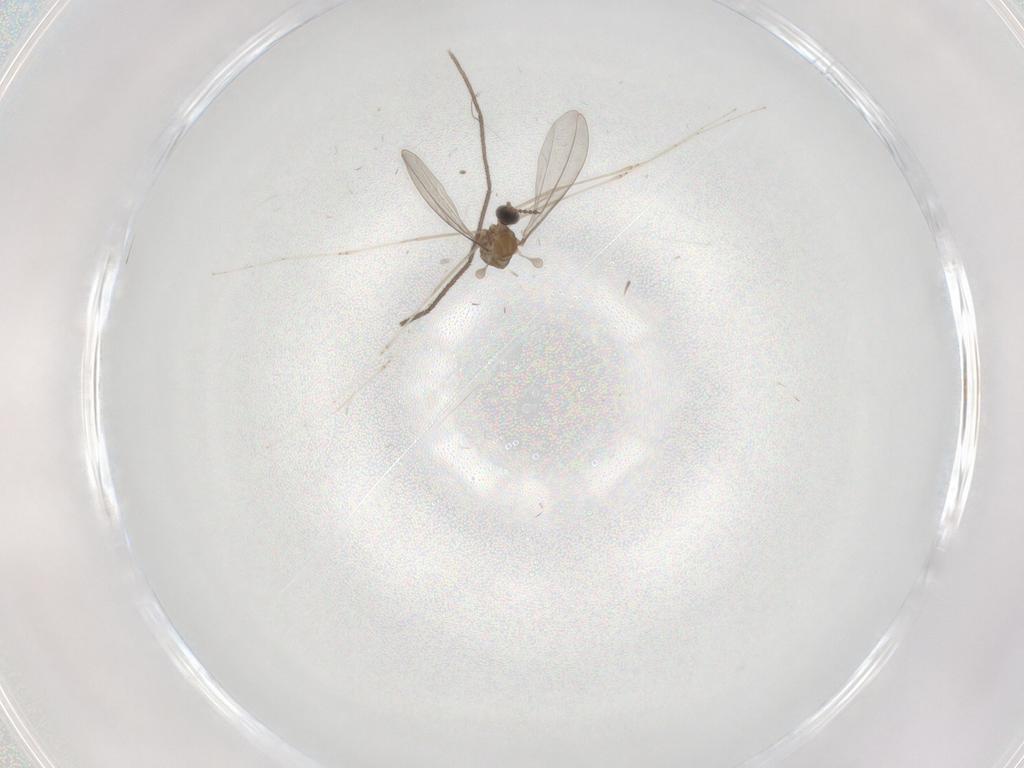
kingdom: Animalia
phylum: Arthropoda
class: Insecta
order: Diptera
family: Cecidomyiidae
